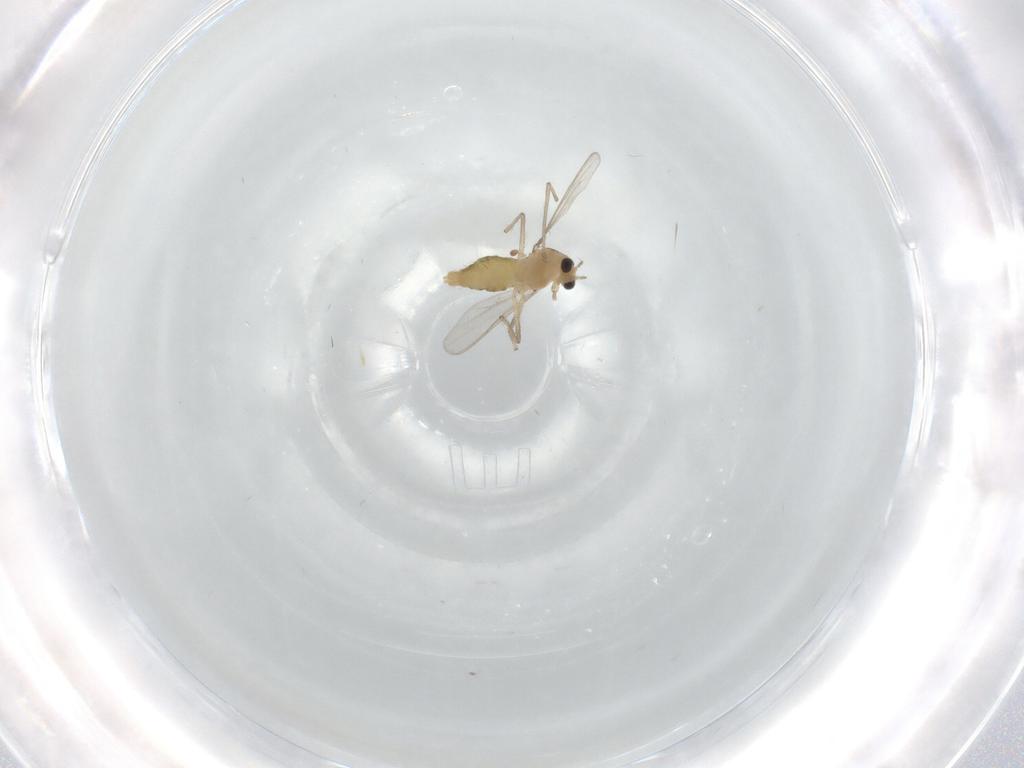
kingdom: Animalia
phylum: Arthropoda
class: Insecta
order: Diptera
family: Chironomidae
